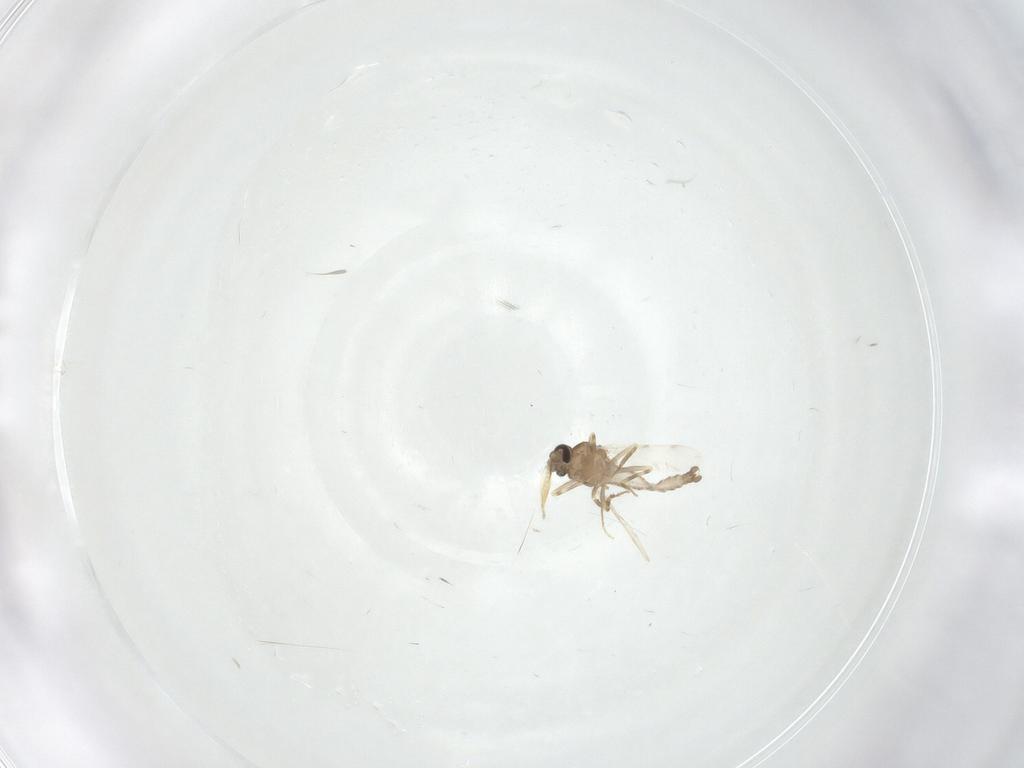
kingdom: Animalia
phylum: Arthropoda
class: Insecta
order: Diptera
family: Ceratopogonidae
